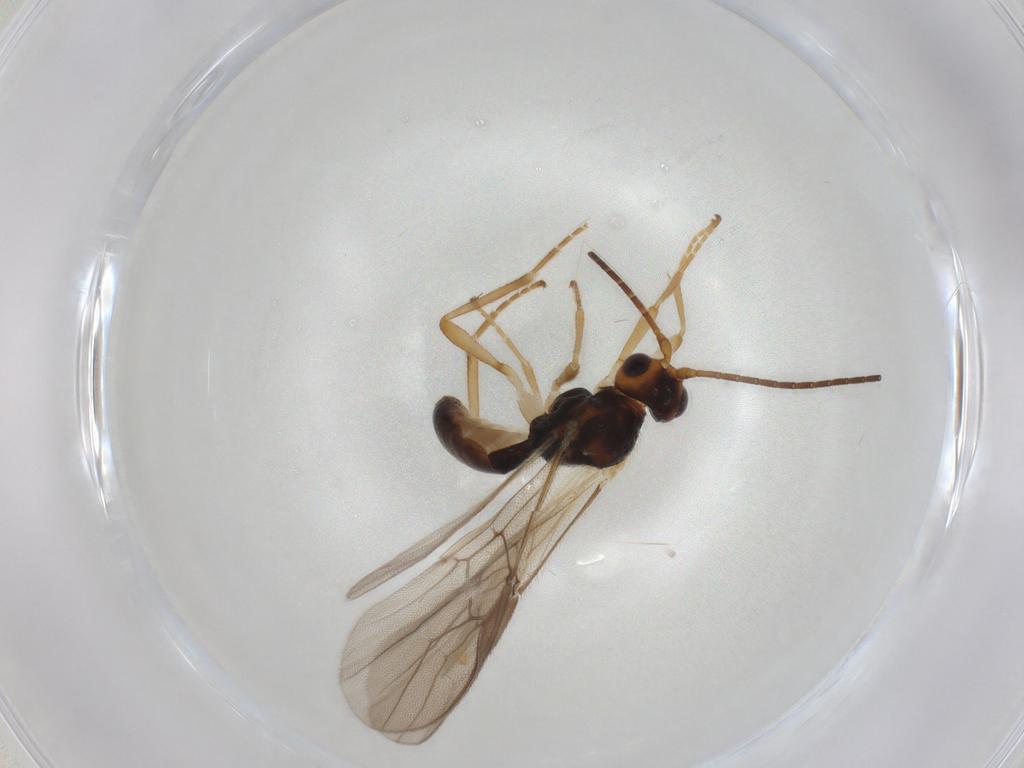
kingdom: Animalia
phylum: Arthropoda
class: Insecta
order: Hymenoptera
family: Braconidae
